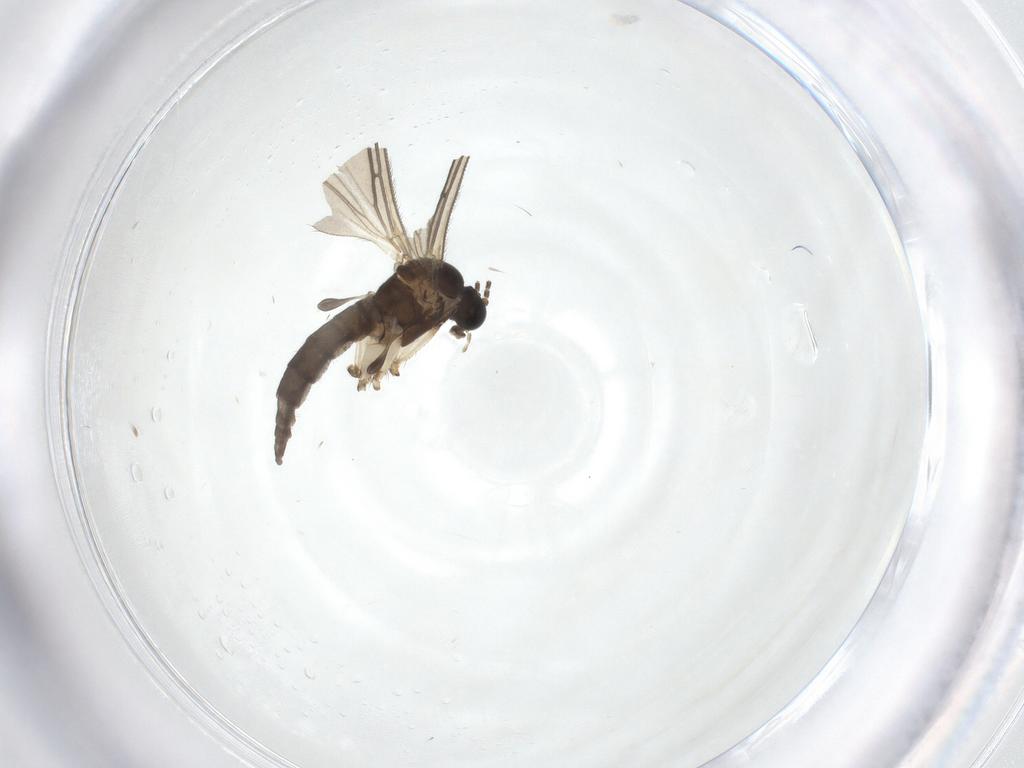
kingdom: Animalia
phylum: Arthropoda
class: Insecta
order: Diptera
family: Sciaridae
